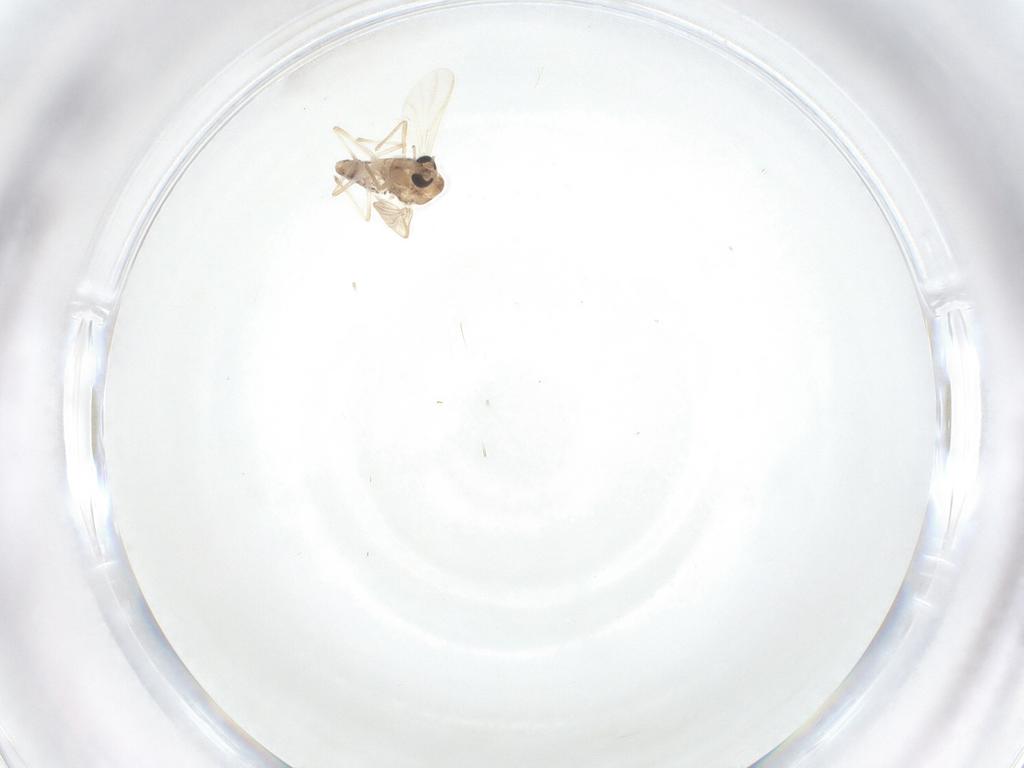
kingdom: Animalia
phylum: Arthropoda
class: Insecta
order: Diptera
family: Chironomidae
